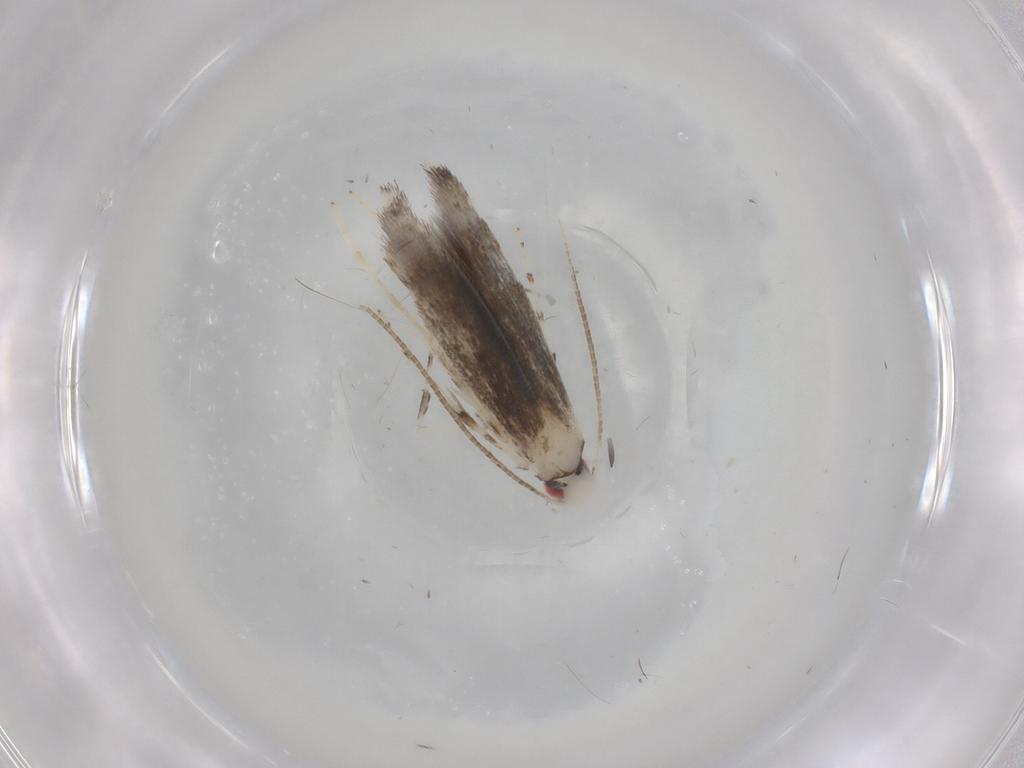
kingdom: Animalia
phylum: Arthropoda
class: Insecta
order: Lepidoptera
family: Gracillariidae
